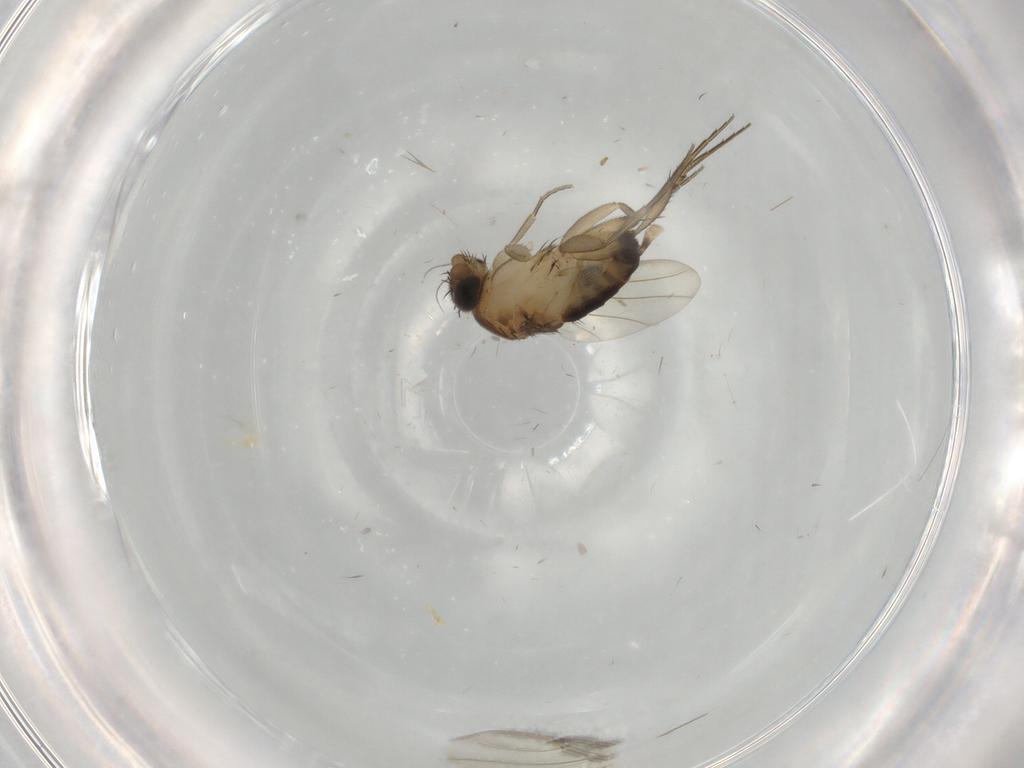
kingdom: Animalia
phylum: Arthropoda
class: Insecta
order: Diptera
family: Phoridae
